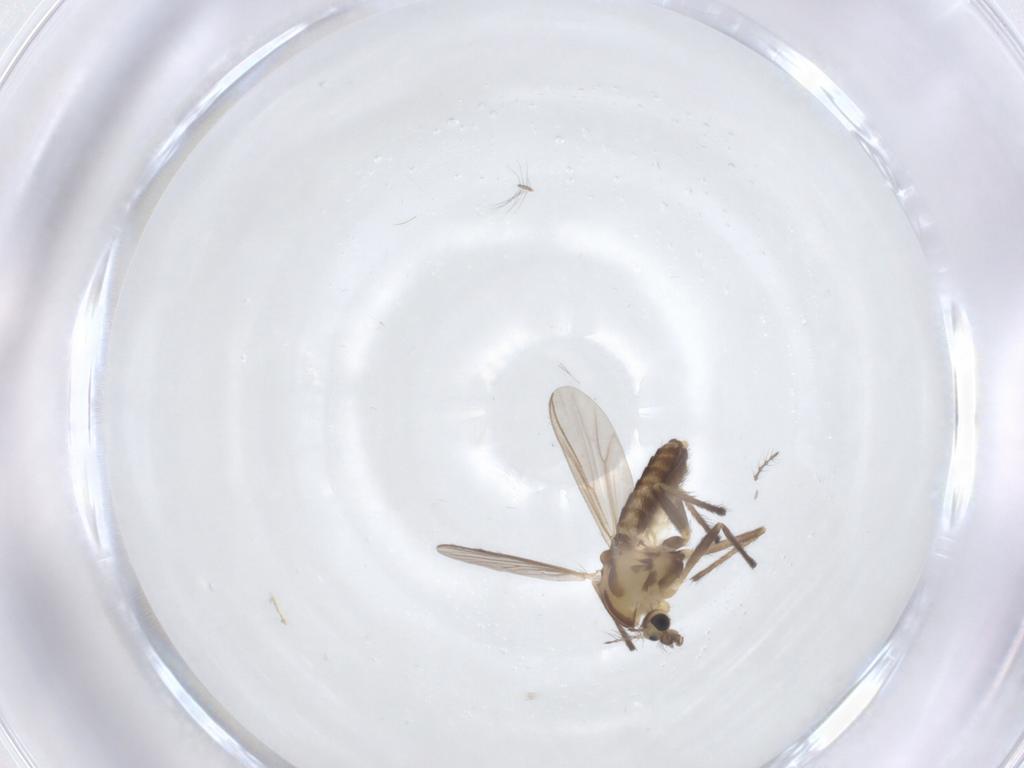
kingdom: Animalia
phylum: Arthropoda
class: Insecta
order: Diptera
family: Chironomidae
